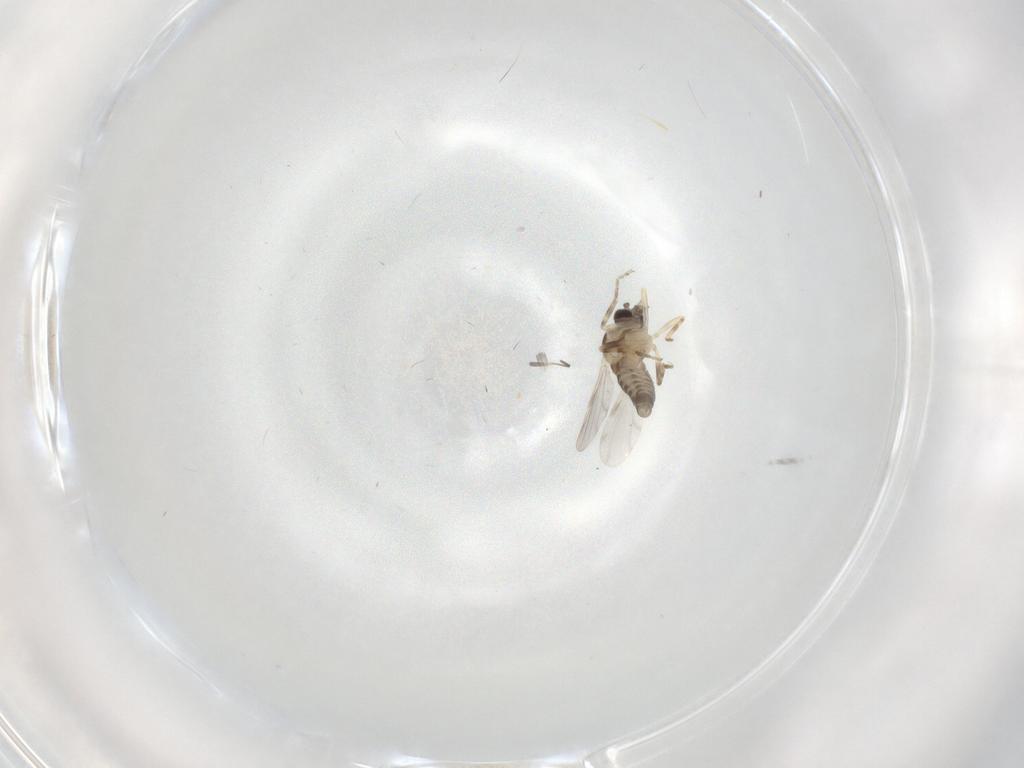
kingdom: Animalia
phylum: Arthropoda
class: Insecta
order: Diptera
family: Ceratopogonidae
